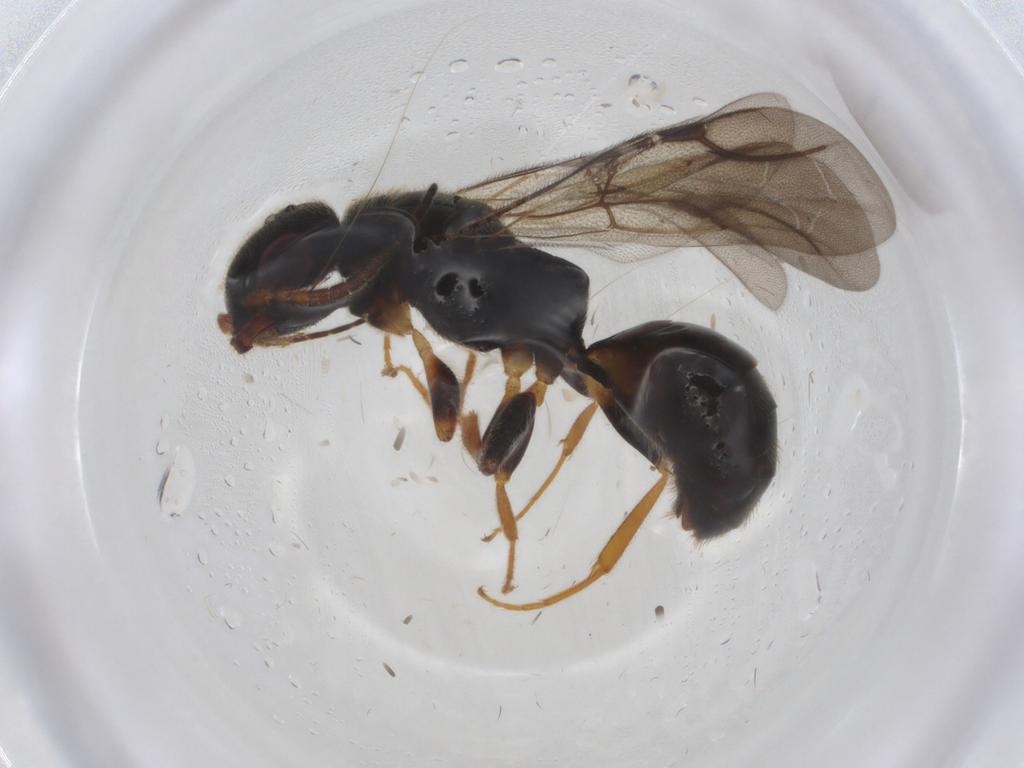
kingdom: Animalia
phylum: Arthropoda
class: Insecta
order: Hymenoptera
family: Bethylidae
